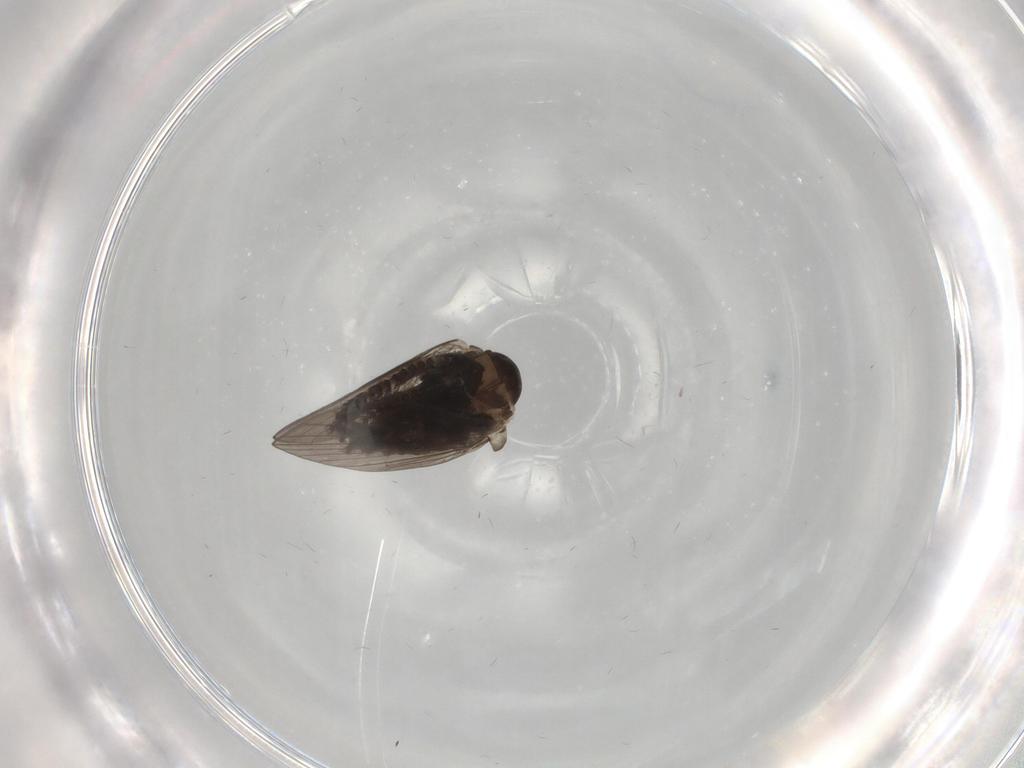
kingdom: Animalia
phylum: Arthropoda
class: Insecta
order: Diptera
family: Psychodidae
